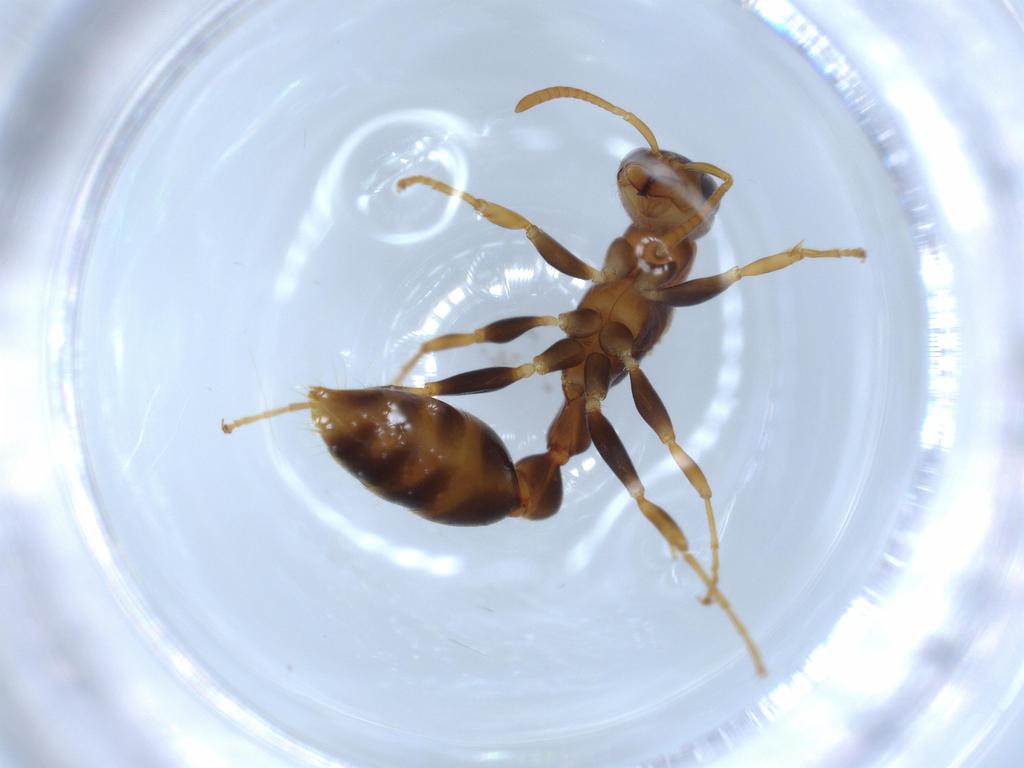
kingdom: Animalia
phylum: Arthropoda
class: Insecta
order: Hymenoptera
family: Formicidae
